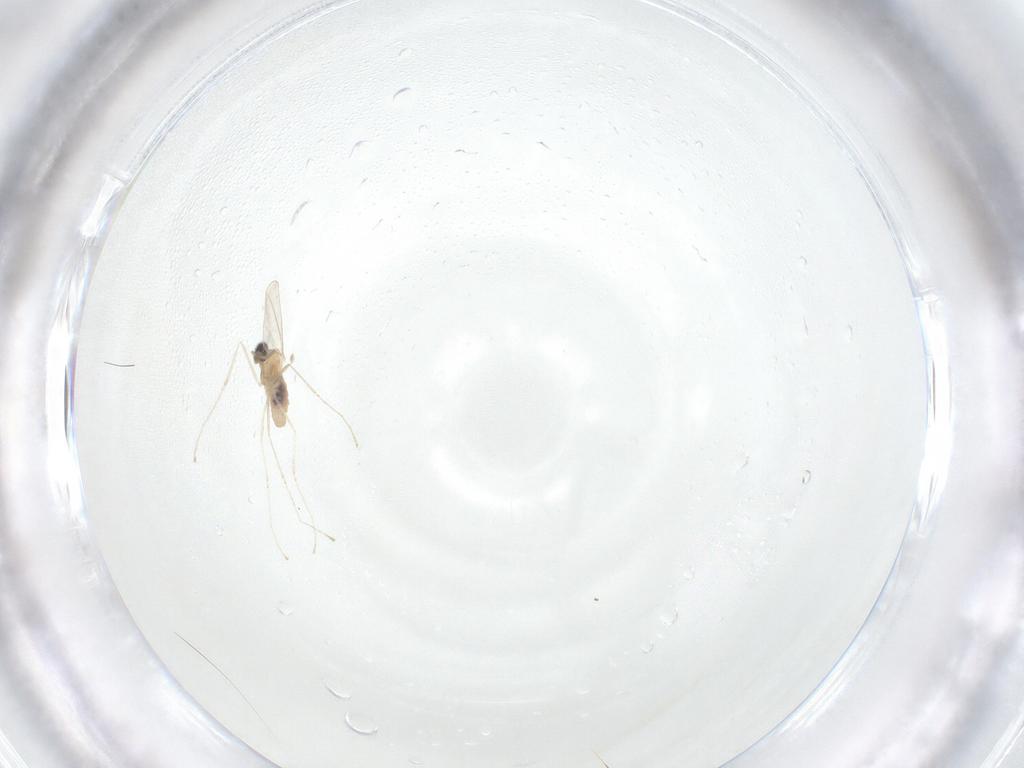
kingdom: Animalia
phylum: Arthropoda
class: Insecta
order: Diptera
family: Cecidomyiidae
